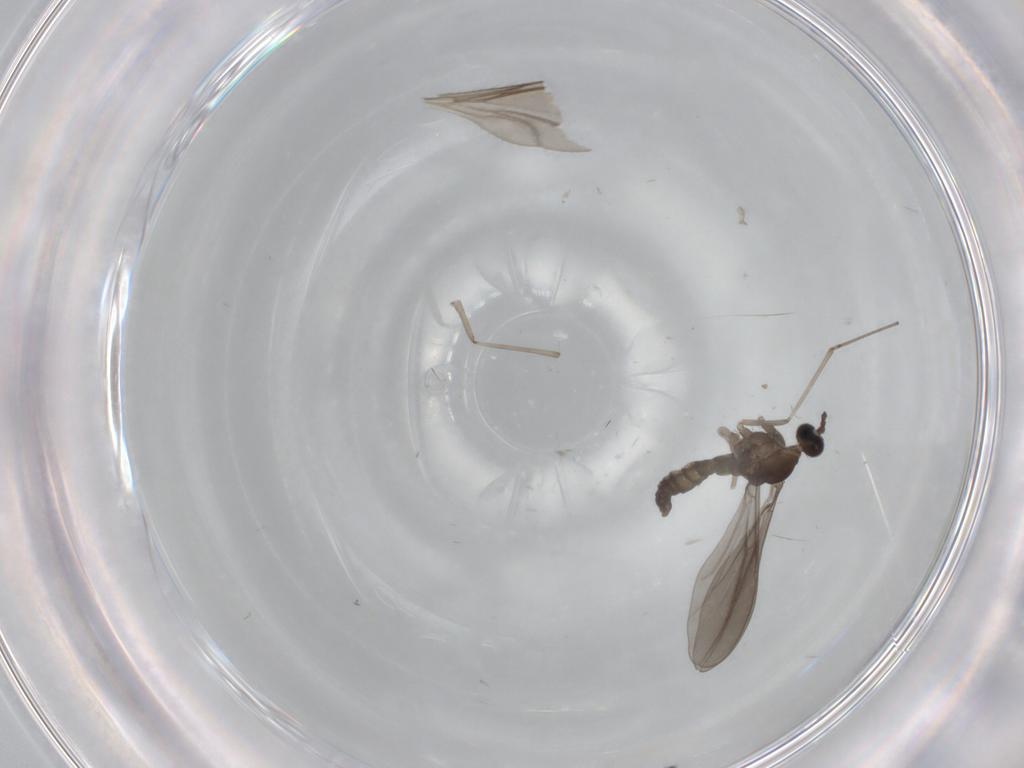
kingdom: Animalia
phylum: Arthropoda
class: Insecta
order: Diptera
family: Cecidomyiidae
